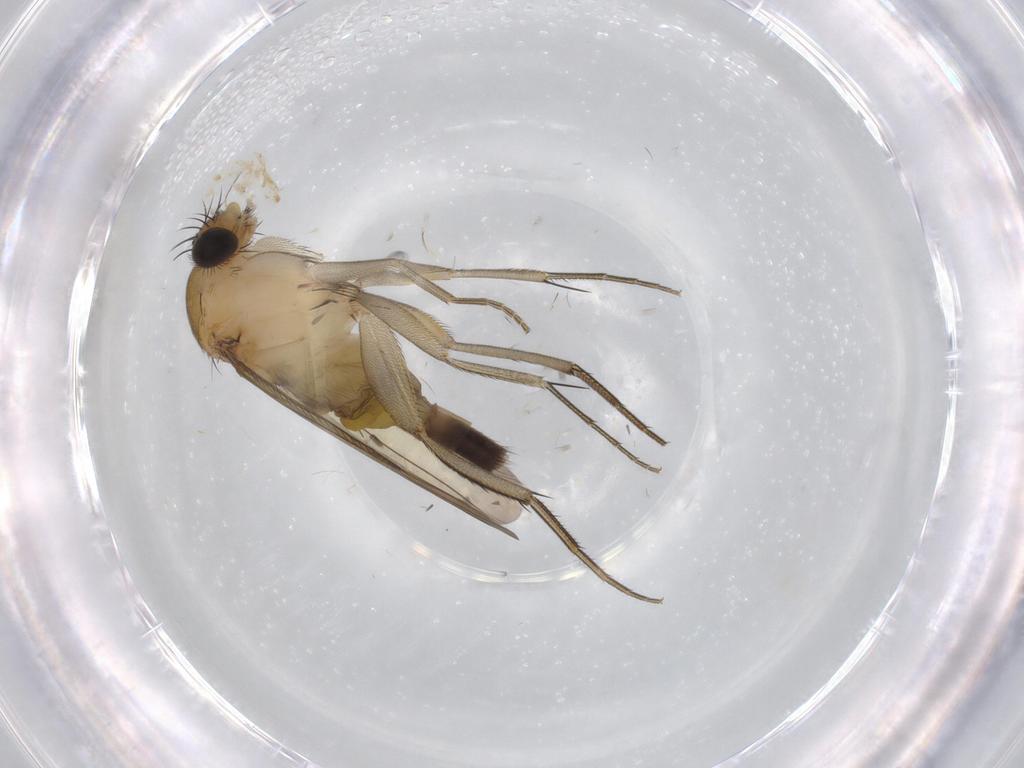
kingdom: Animalia
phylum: Arthropoda
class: Insecta
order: Diptera
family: Phoridae
